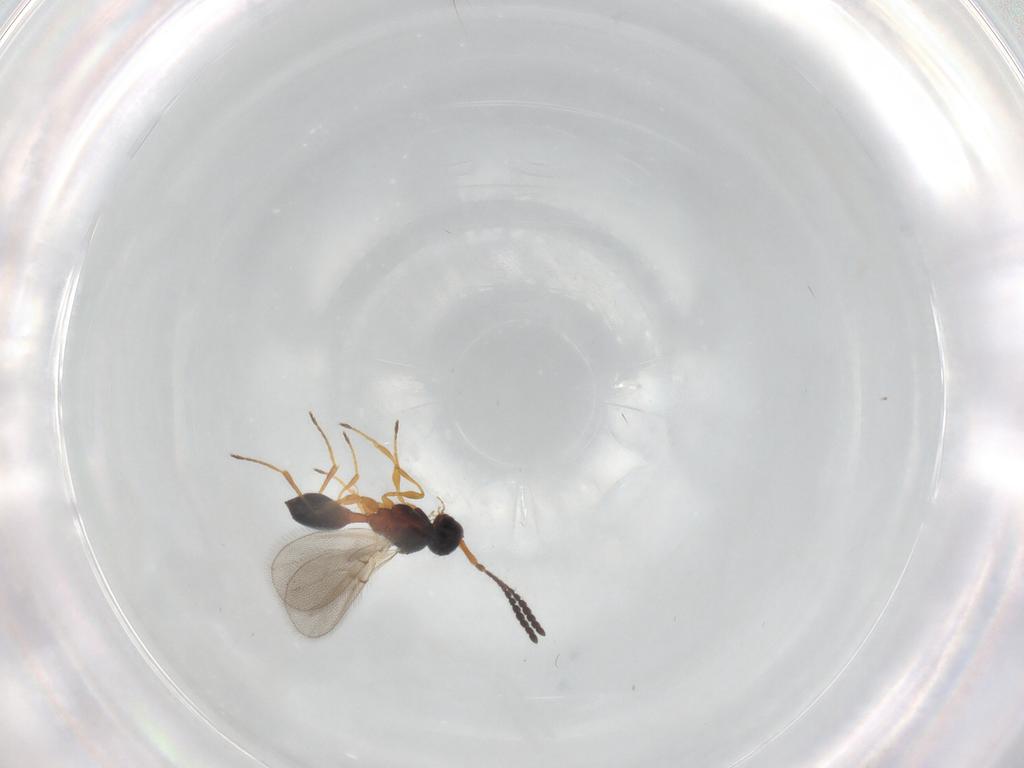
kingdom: Animalia
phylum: Arthropoda
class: Insecta
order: Hymenoptera
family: Diapriidae
